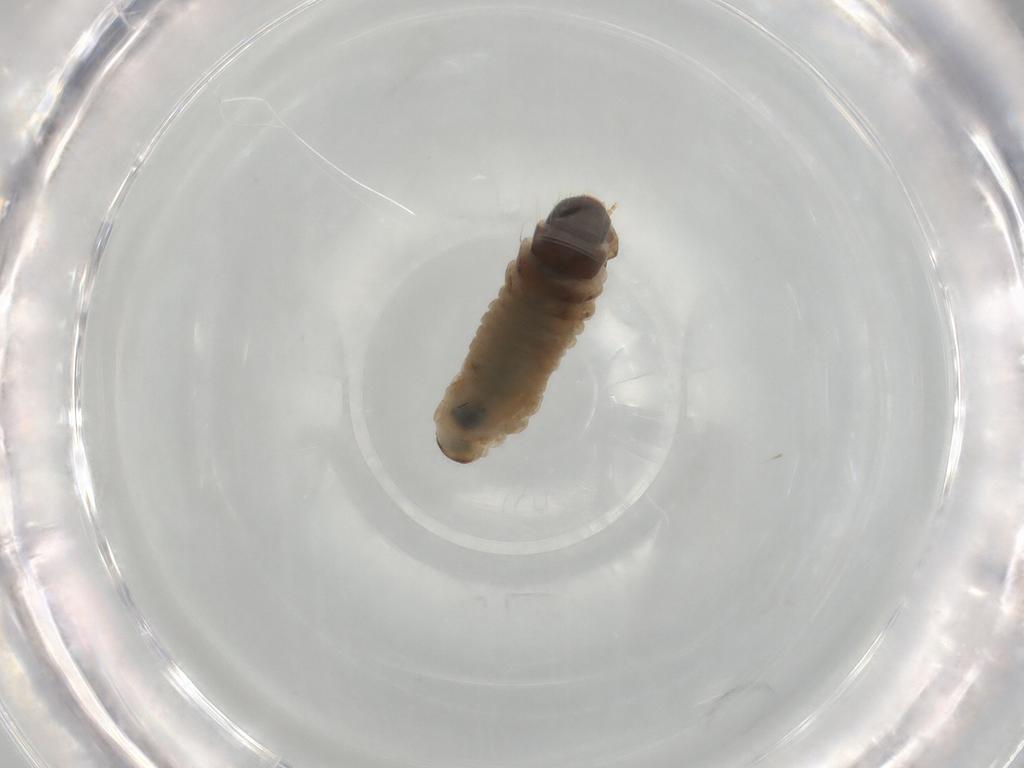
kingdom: Animalia
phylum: Arthropoda
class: Insecta
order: Lepidoptera
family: Psychidae
